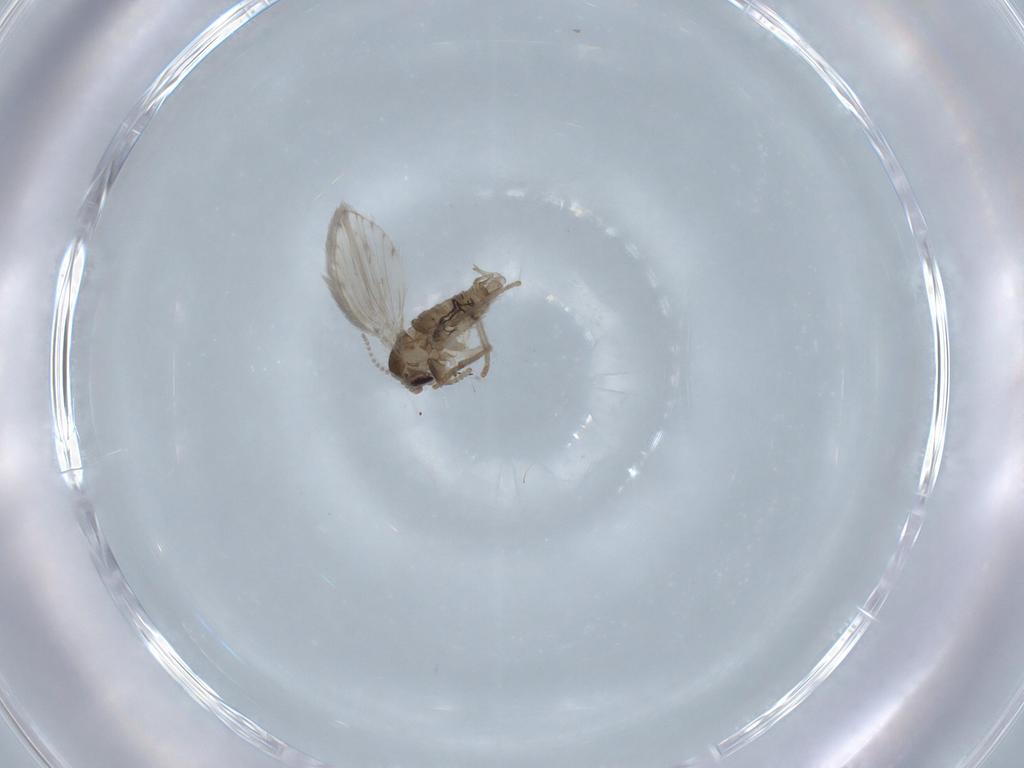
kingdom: Animalia
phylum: Arthropoda
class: Insecta
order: Diptera
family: Psychodidae
